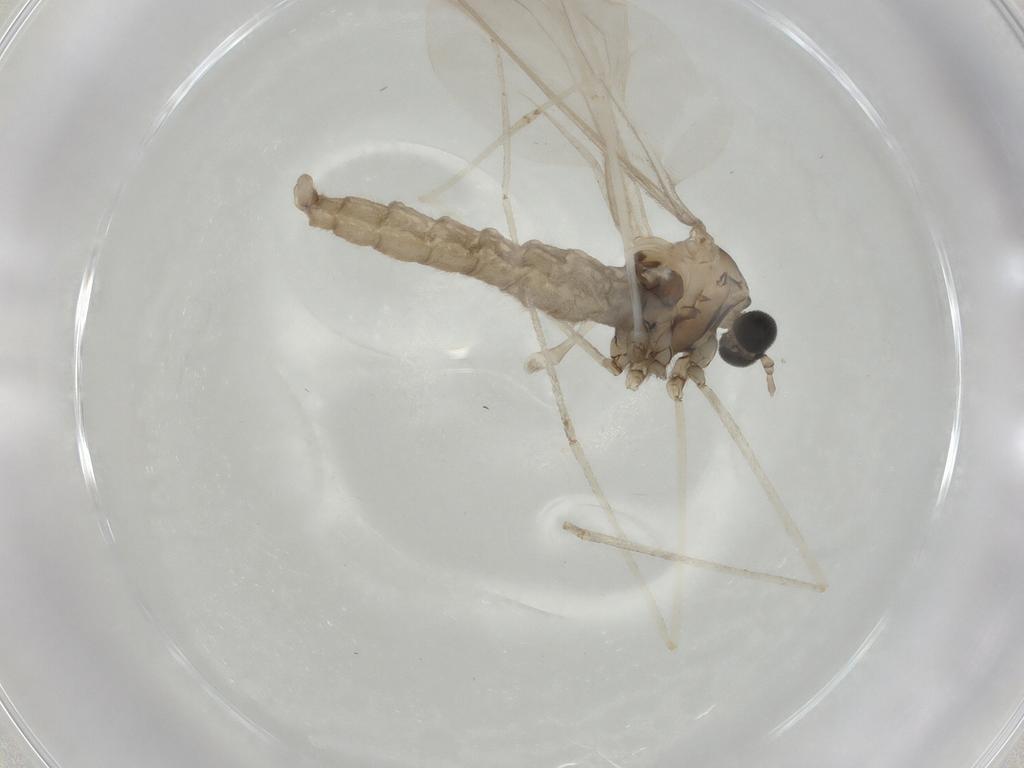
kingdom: Animalia
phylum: Arthropoda
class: Insecta
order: Diptera
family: Cecidomyiidae
